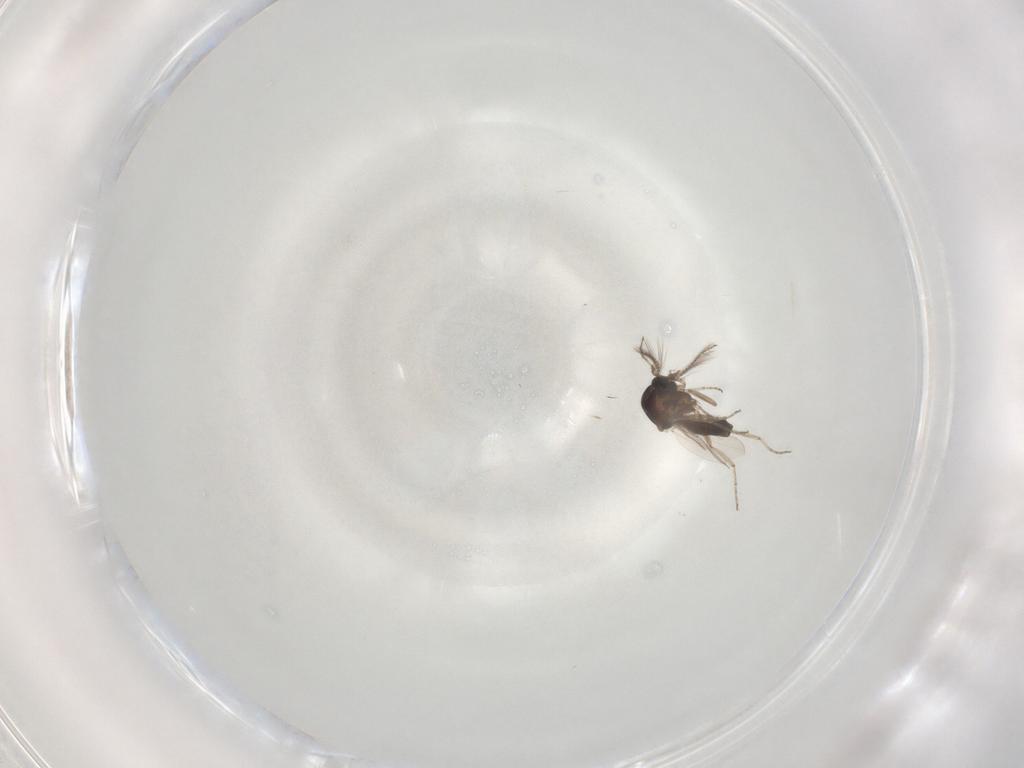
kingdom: Animalia
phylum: Arthropoda
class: Insecta
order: Diptera
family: Ceratopogonidae
